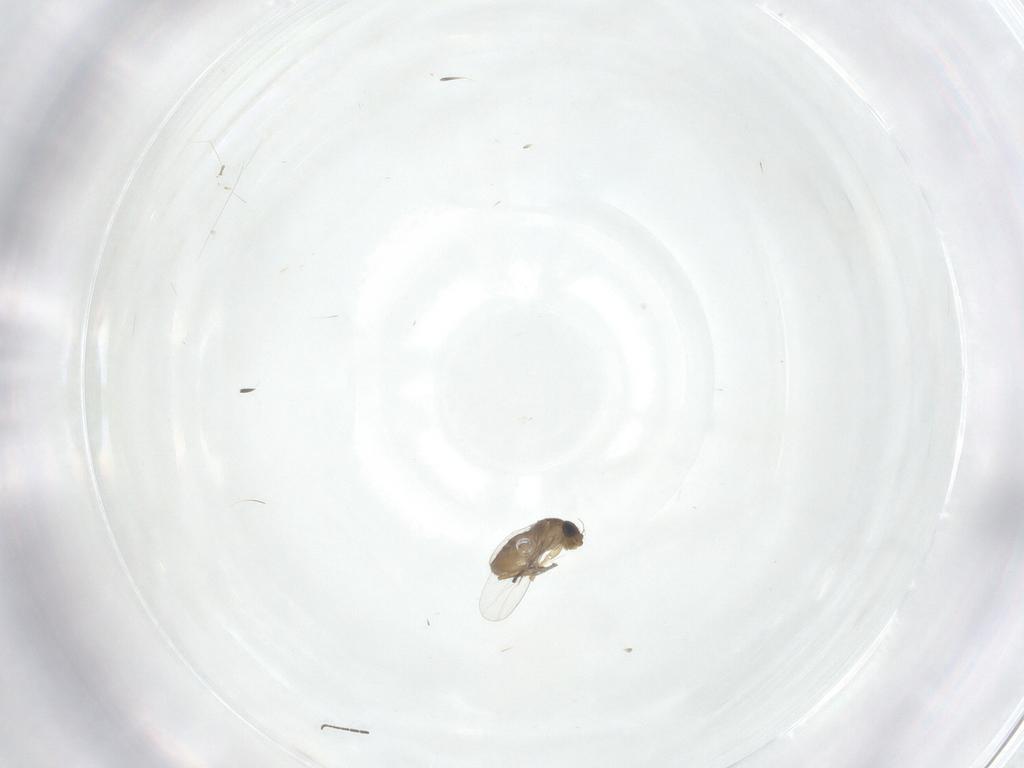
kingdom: Animalia
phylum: Arthropoda
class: Insecta
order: Diptera
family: Sciaridae
